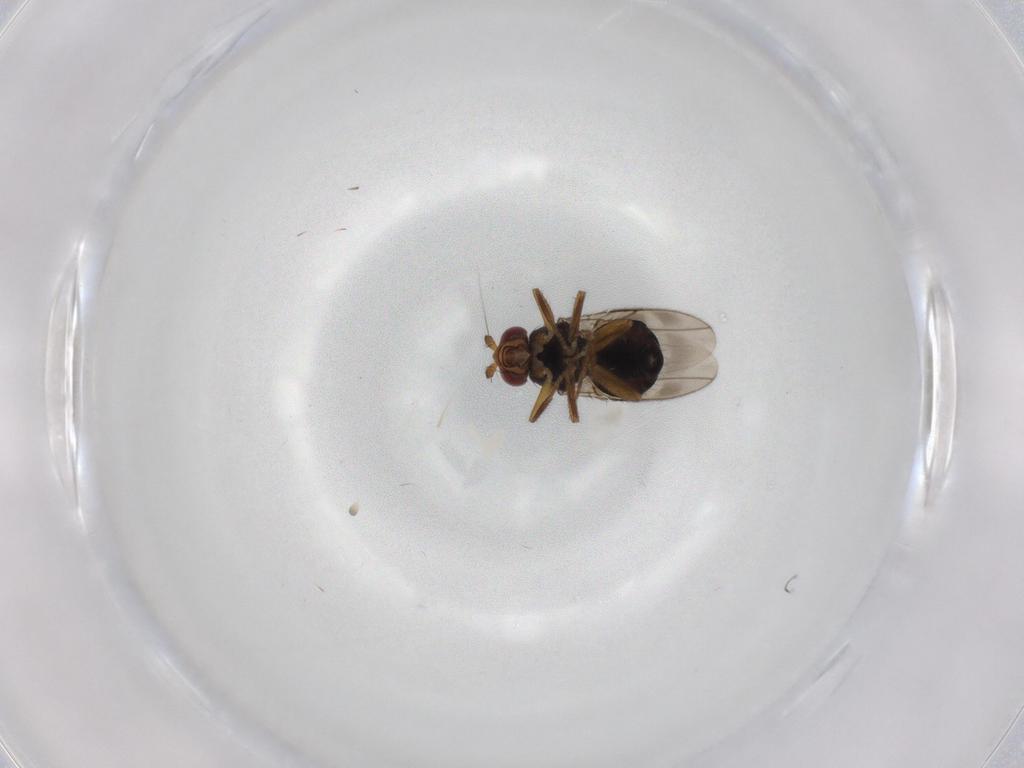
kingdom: Animalia
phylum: Arthropoda
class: Insecta
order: Diptera
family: Sphaeroceridae
